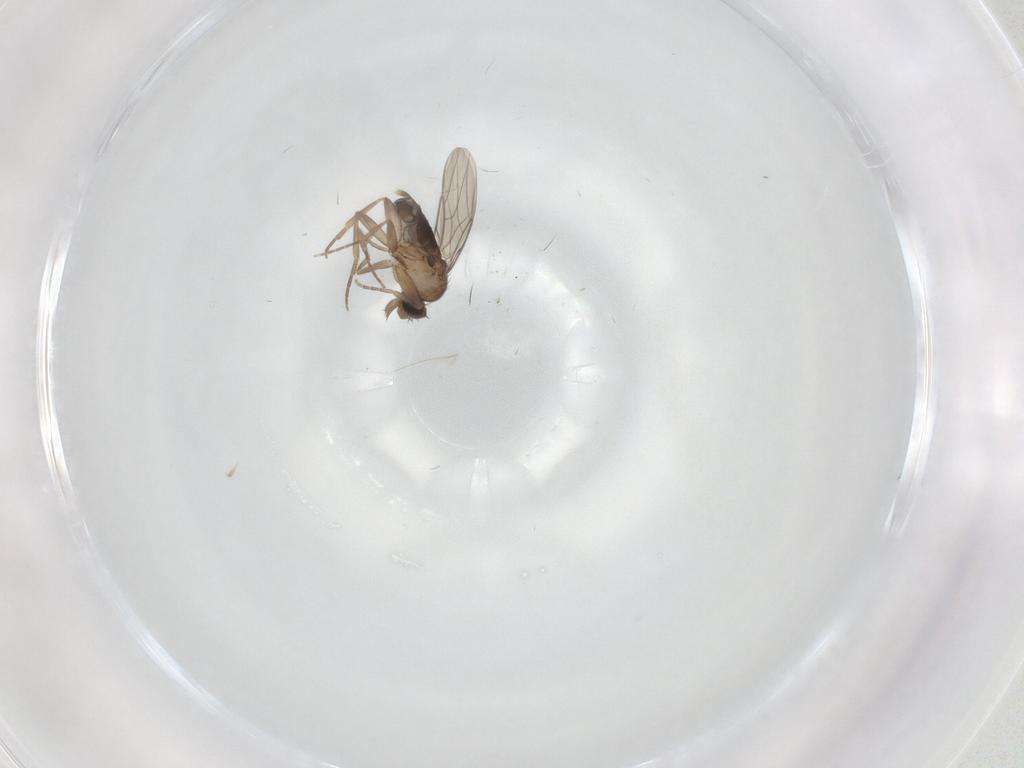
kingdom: Animalia
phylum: Arthropoda
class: Insecta
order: Diptera
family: Phoridae
